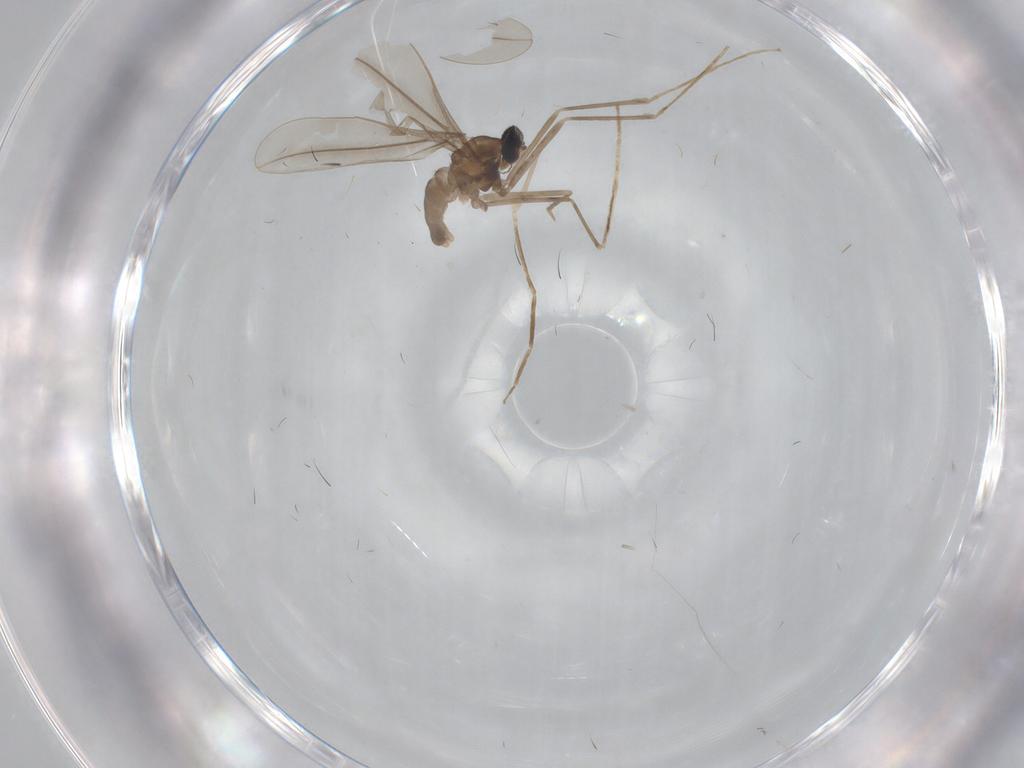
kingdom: Animalia
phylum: Arthropoda
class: Insecta
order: Diptera
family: Cecidomyiidae
